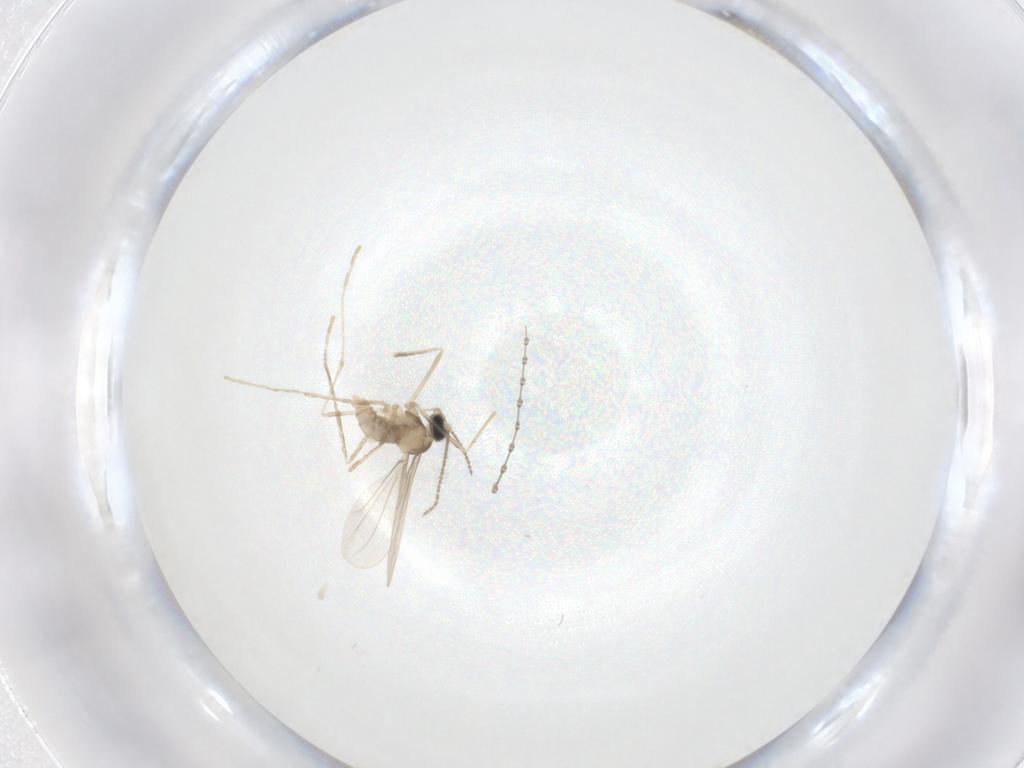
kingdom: Animalia
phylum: Arthropoda
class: Insecta
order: Diptera
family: Cecidomyiidae
